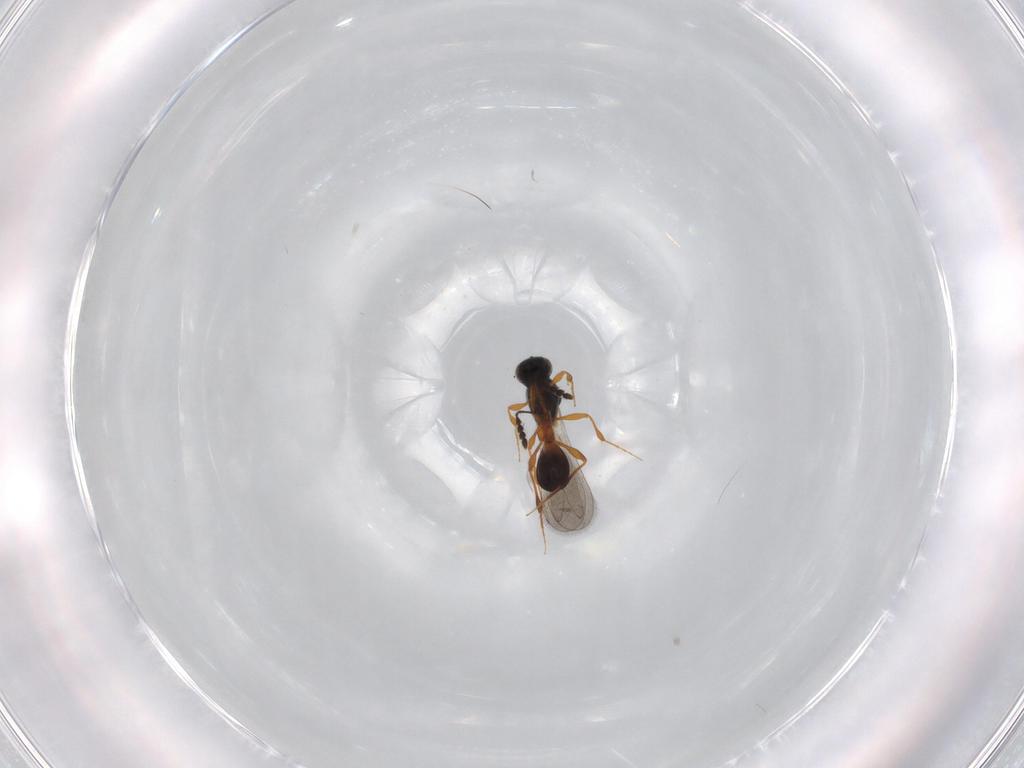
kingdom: Animalia
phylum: Arthropoda
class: Insecta
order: Hymenoptera
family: Platygastridae
